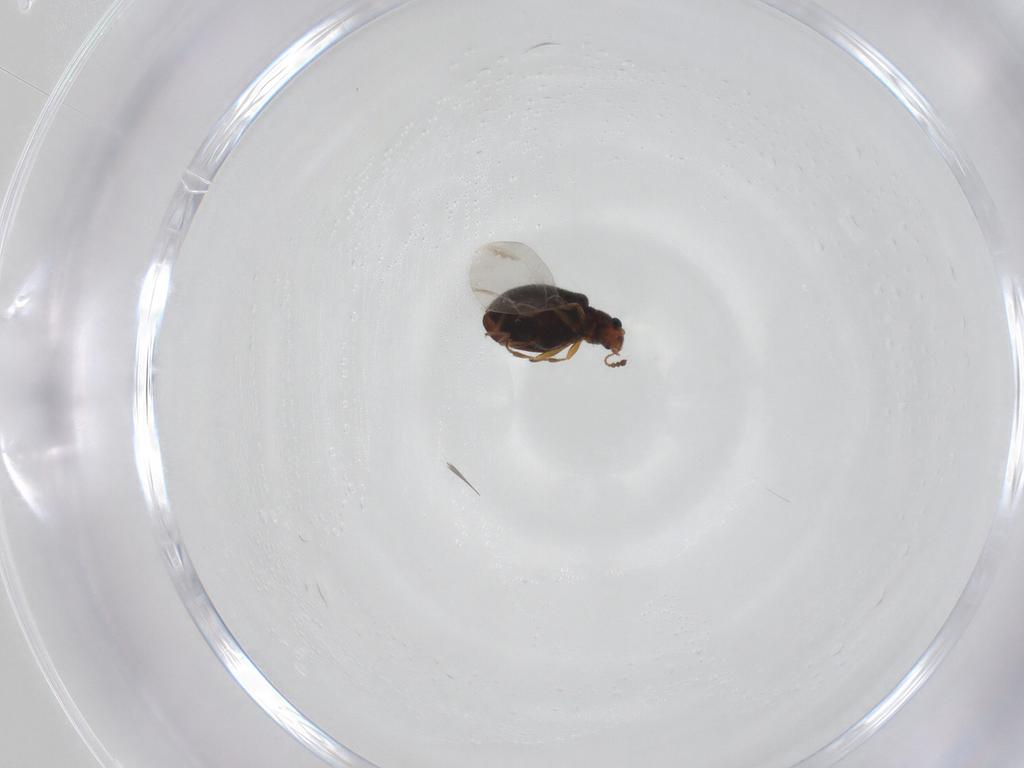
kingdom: Animalia
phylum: Arthropoda
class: Insecta
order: Coleoptera
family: Latridiidae
